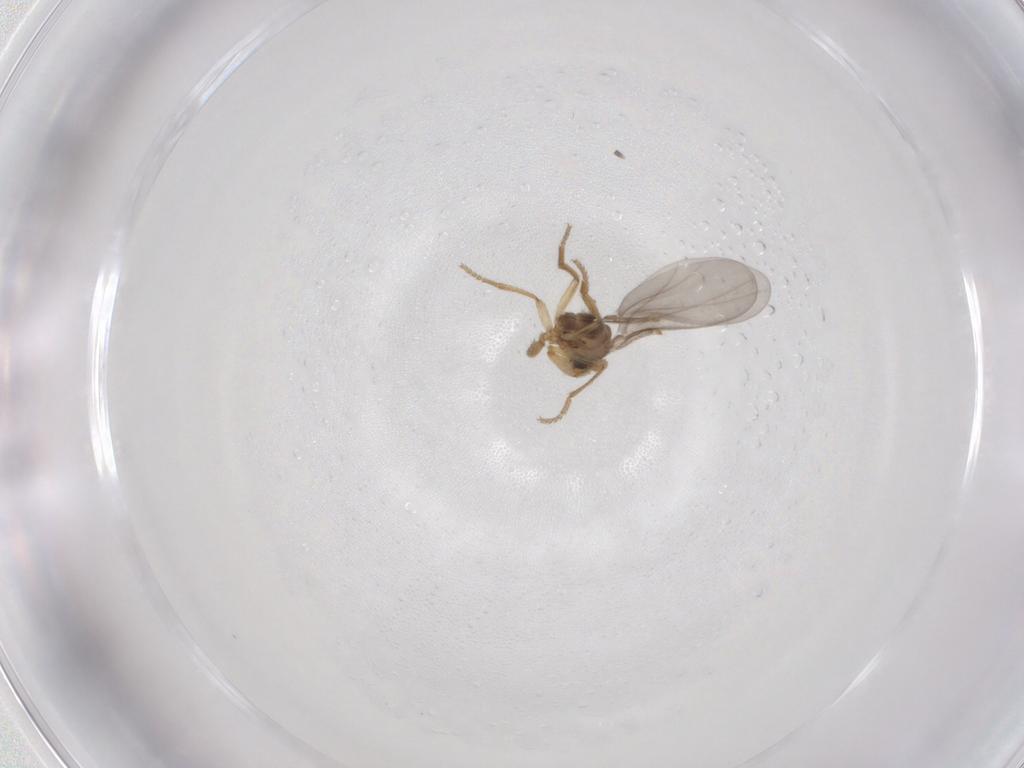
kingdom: Animalia
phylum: Arthropoda
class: Insecta
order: Diptera
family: Phoridae
